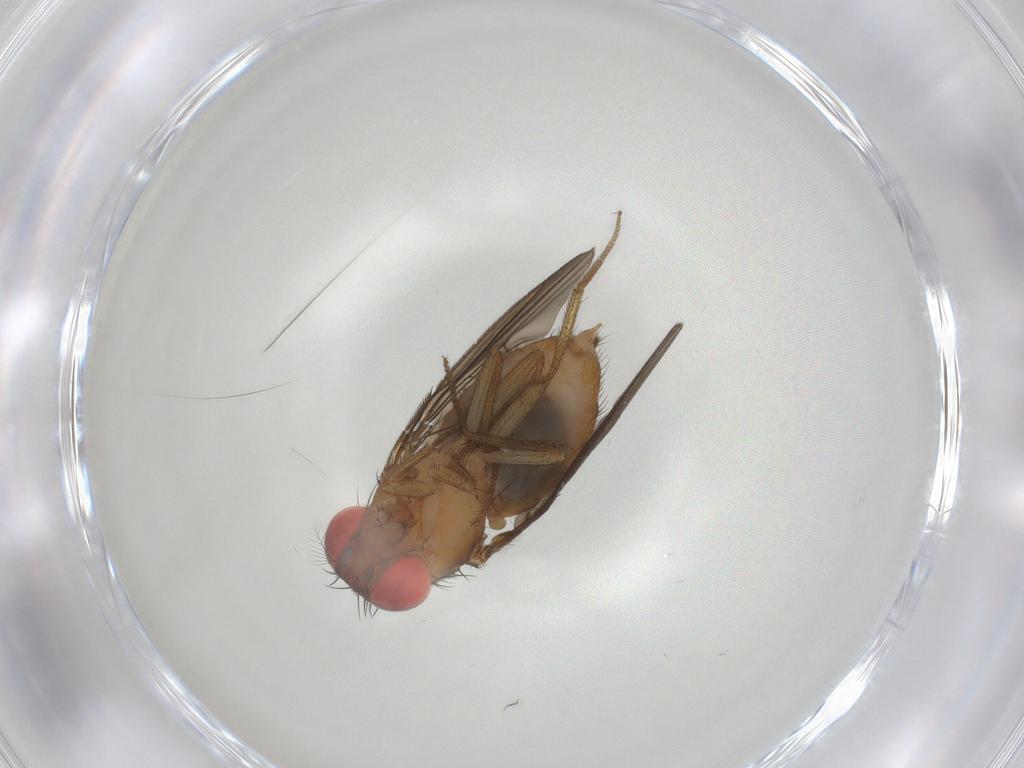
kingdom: Animalia
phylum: Arthropoda
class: Insecta
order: Diptera
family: Drosophilidae
